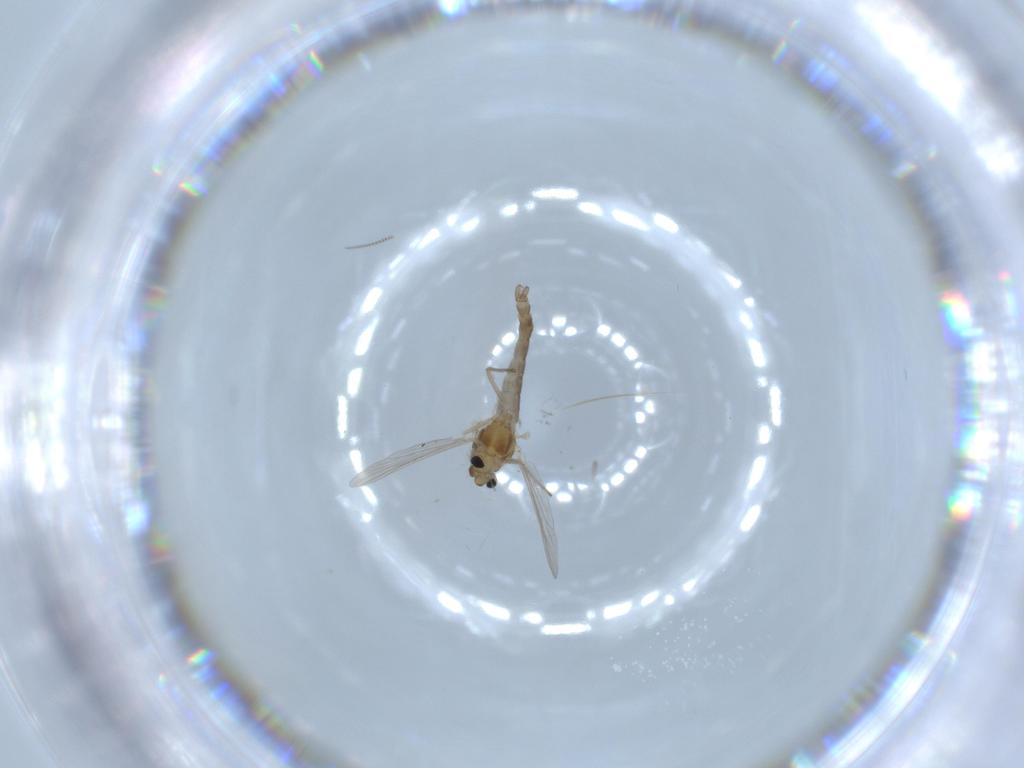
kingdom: Animalia
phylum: Arthropoda
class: Insecta
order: Diptera
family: Chironomidae
